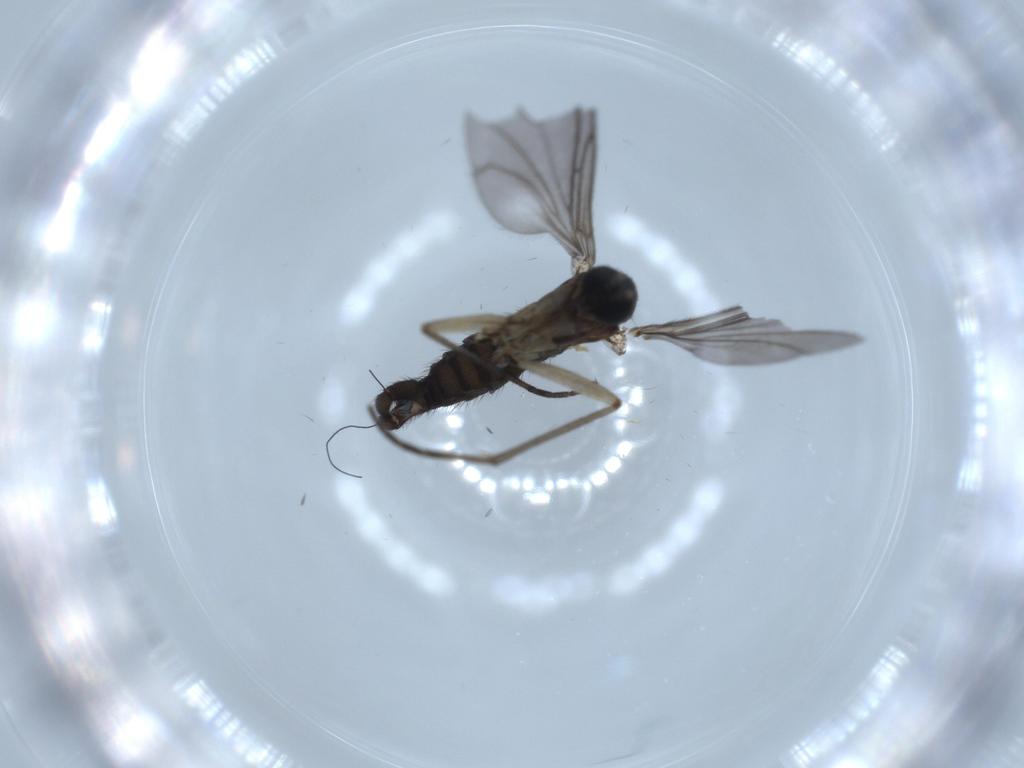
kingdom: Animalia
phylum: Arthropoda
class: Insecta
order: Diptera
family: Sciaridae
